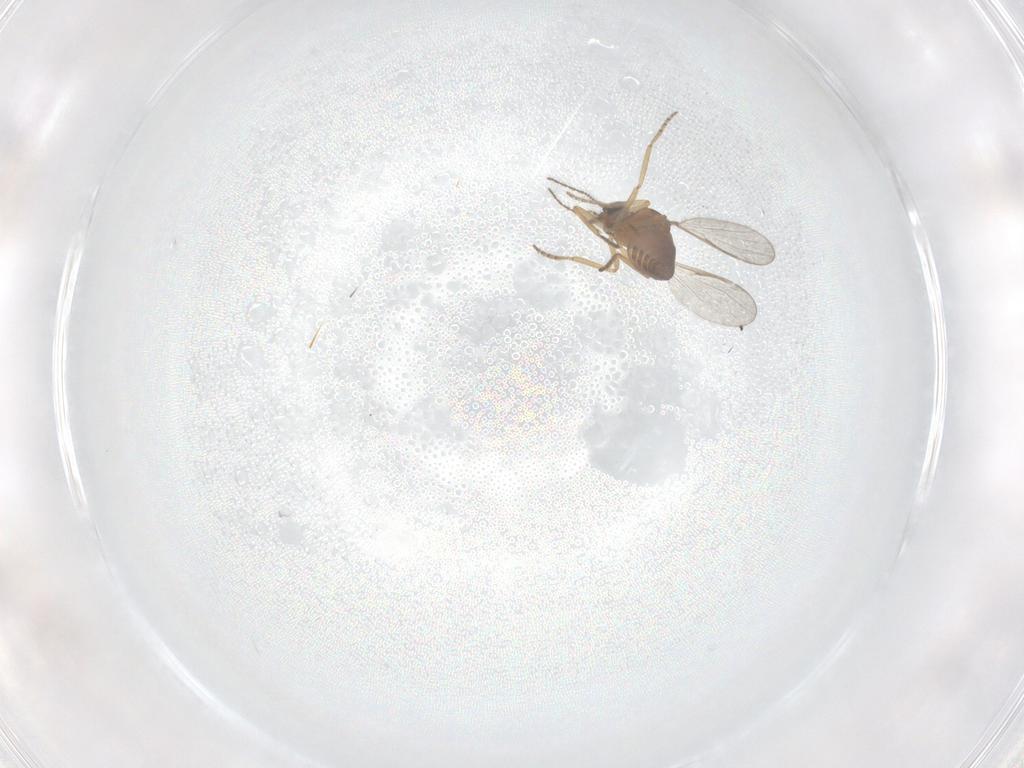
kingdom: Animalia
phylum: Arthropoda
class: Insecta
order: Diptera
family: Ceratopogonidae
